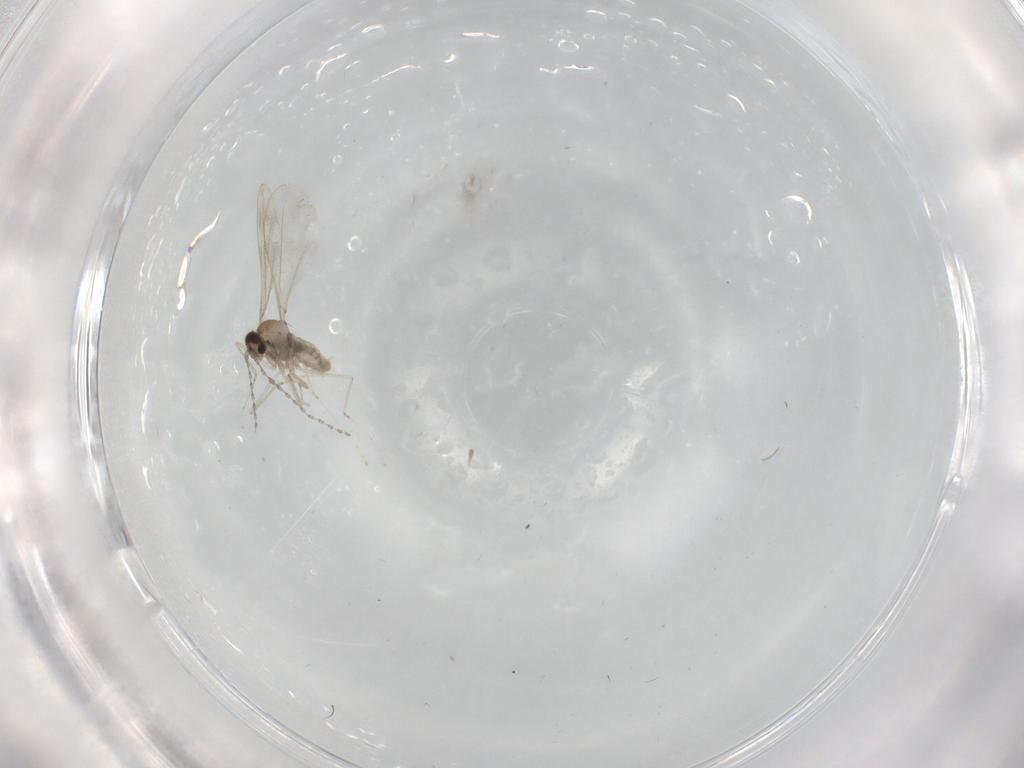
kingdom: Animalia
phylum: Arthropoda
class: Insecta
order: Diptera
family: Cecidomyiidae
